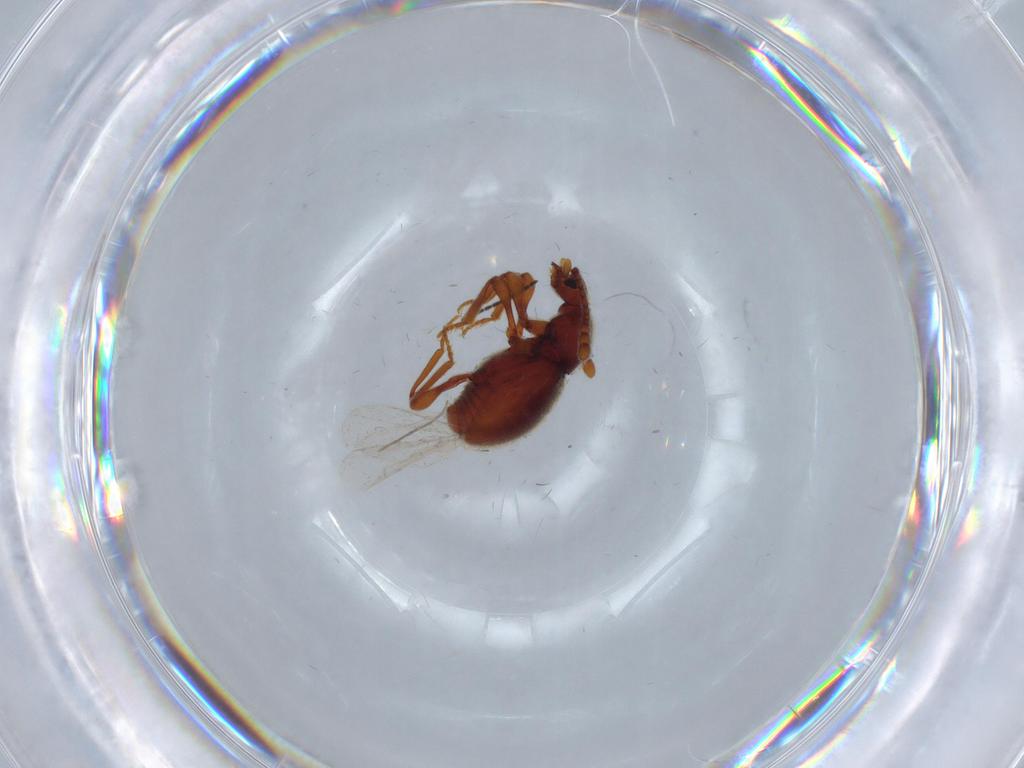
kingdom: Animalia
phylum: Arthropoda
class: Insecta
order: Coleoptera
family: Staphylinidae
